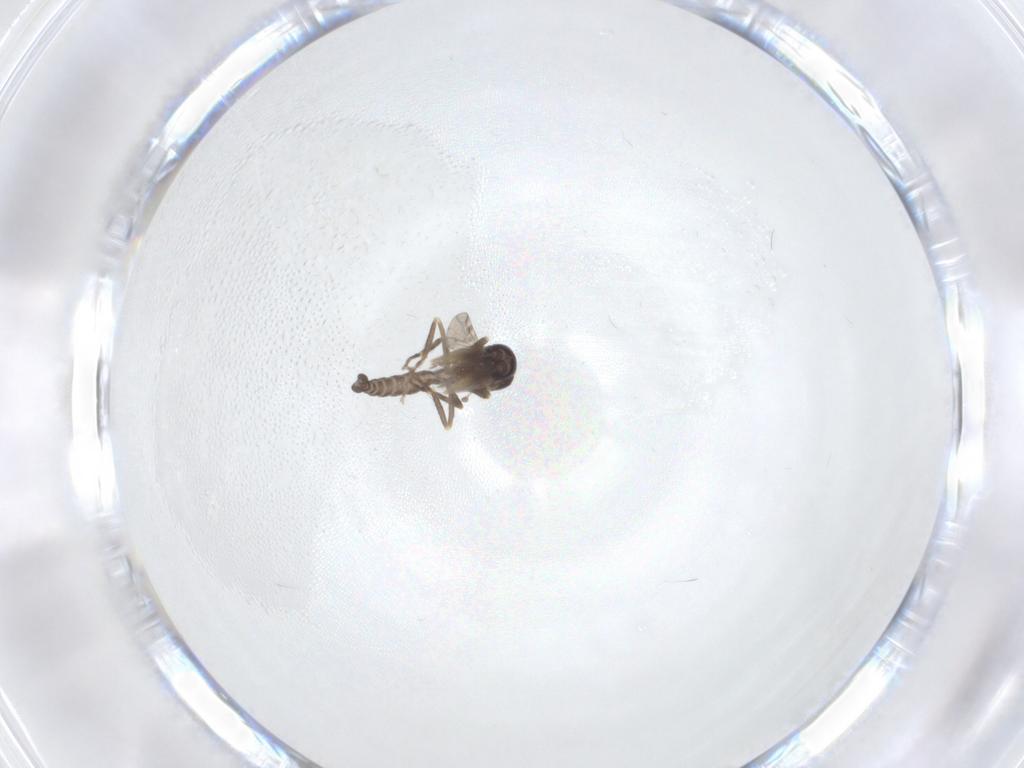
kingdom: Animalia
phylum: Arthropoda
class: Insecta
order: Diptera
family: Ceratopogonidae
